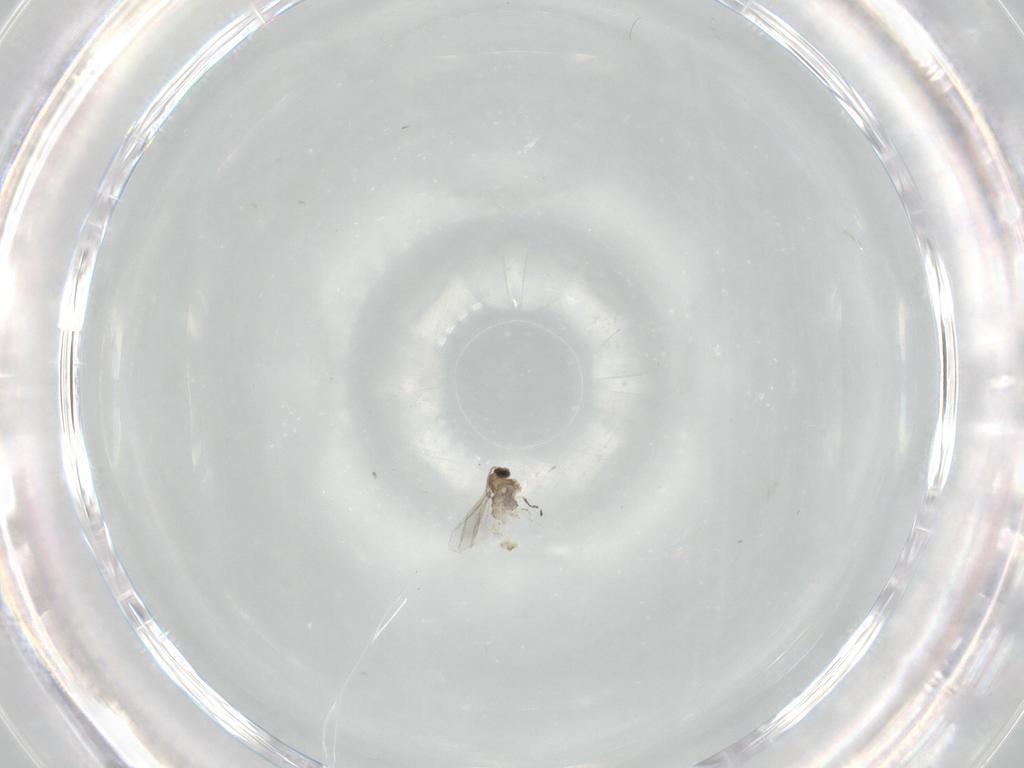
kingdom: Animalia
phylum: Arthropoda
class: Insecta
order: Diptera
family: Cecidomyiidae
